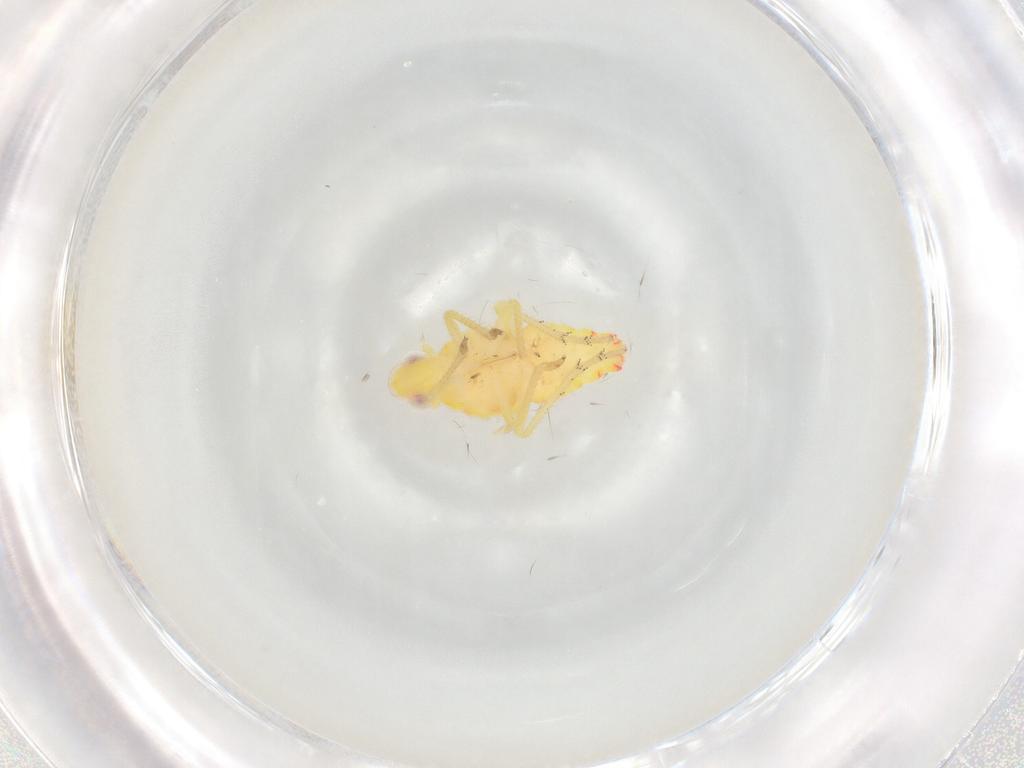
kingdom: Animalia
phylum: Arthropoda
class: Insecta
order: Hemiptera
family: Tropiduchidae
